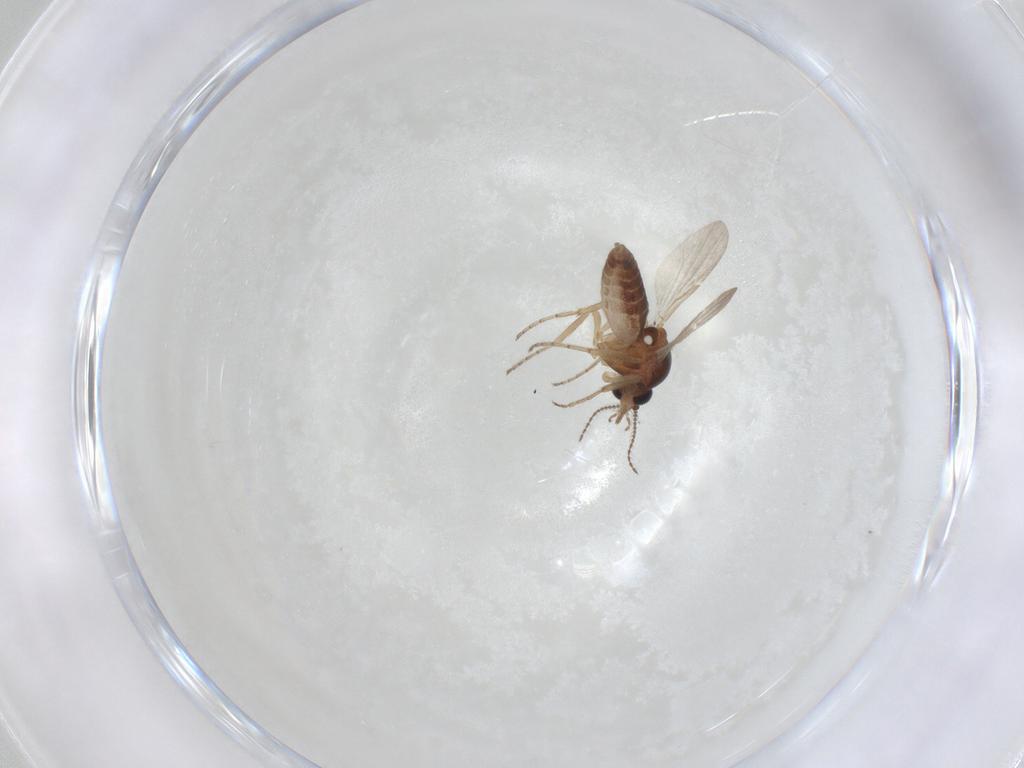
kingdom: Animalia
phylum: Arthropoda
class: Insecta
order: Diptera
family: Ceratopogonidae
